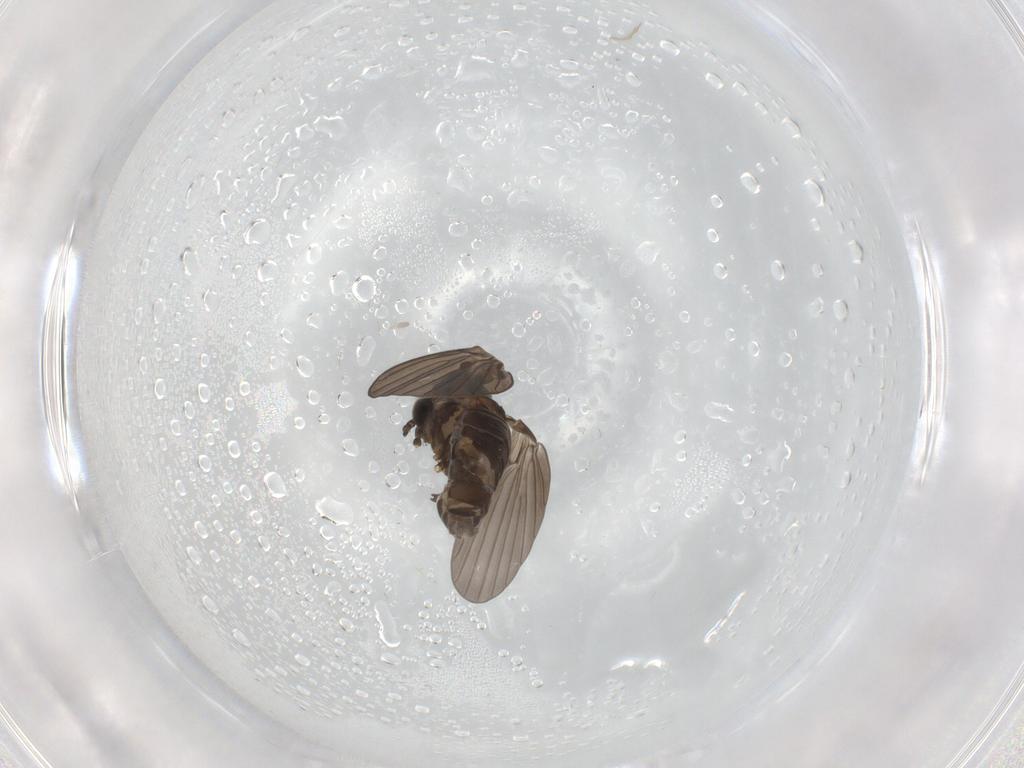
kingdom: Animalia
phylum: Arthropoda
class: Insecta
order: Diptera
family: Psychodidae
